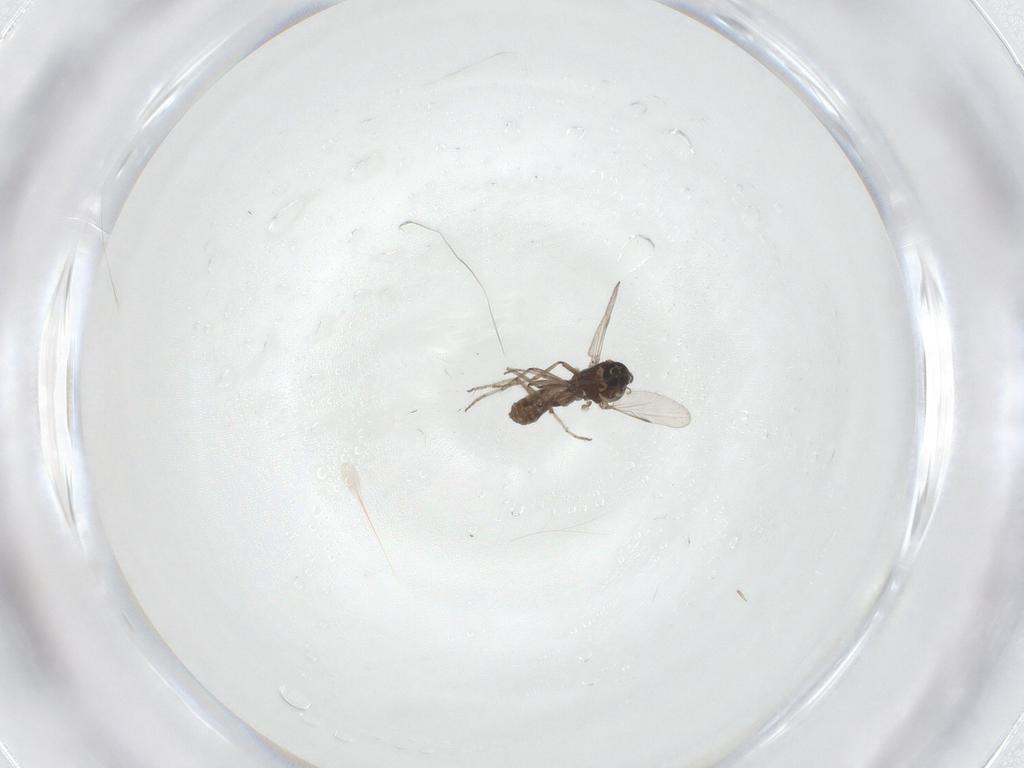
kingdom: Animalia
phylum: Arthropoda
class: Insecta
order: Diptera
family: Ceratopogonidae
